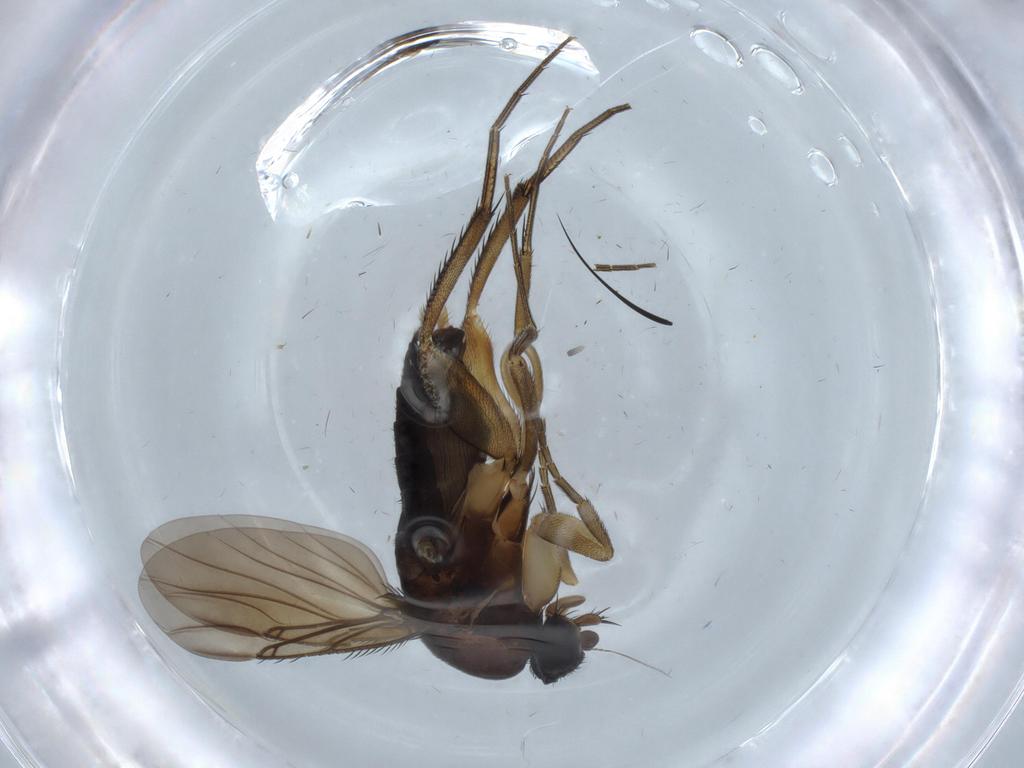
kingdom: Animalia
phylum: Arthropoda
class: Insecta
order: Diptera
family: Phoridae
